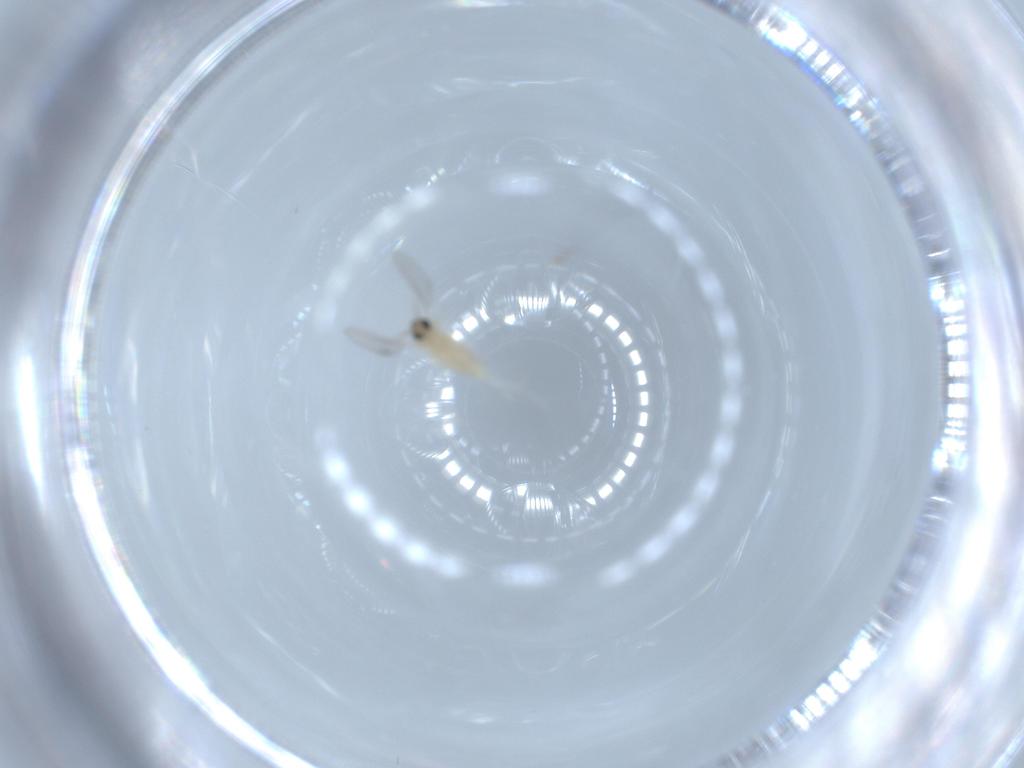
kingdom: Animalia
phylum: Arthropoda
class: Insecta
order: Diptera
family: Cecidomyiidae
